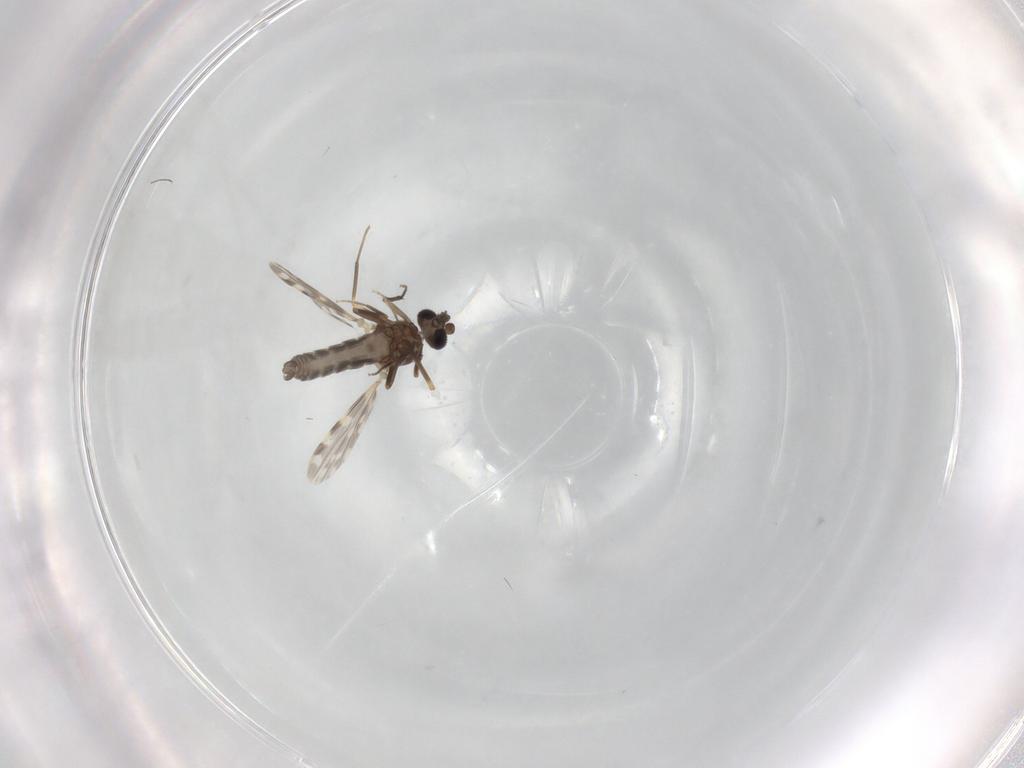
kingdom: Animalia
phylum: Arthropoda
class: Insecta
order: Diptera
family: Ceratopogonidae
